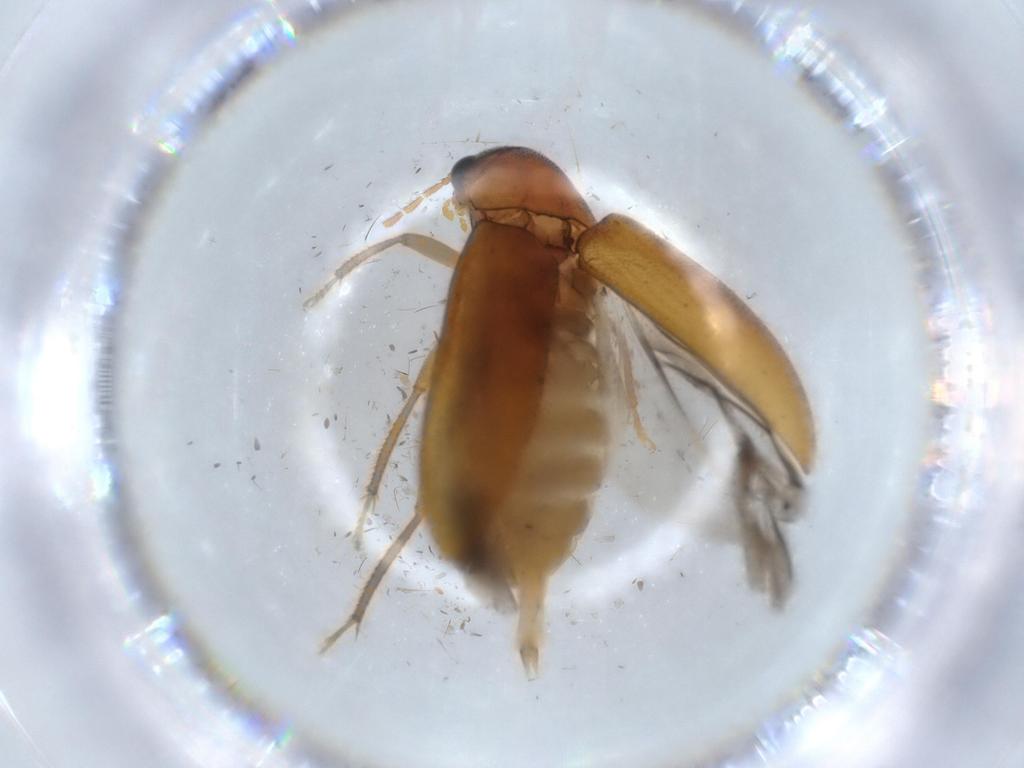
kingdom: Animalia
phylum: Arthropoda
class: Insecta
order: Coleoptera
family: Ptilodactylidae
